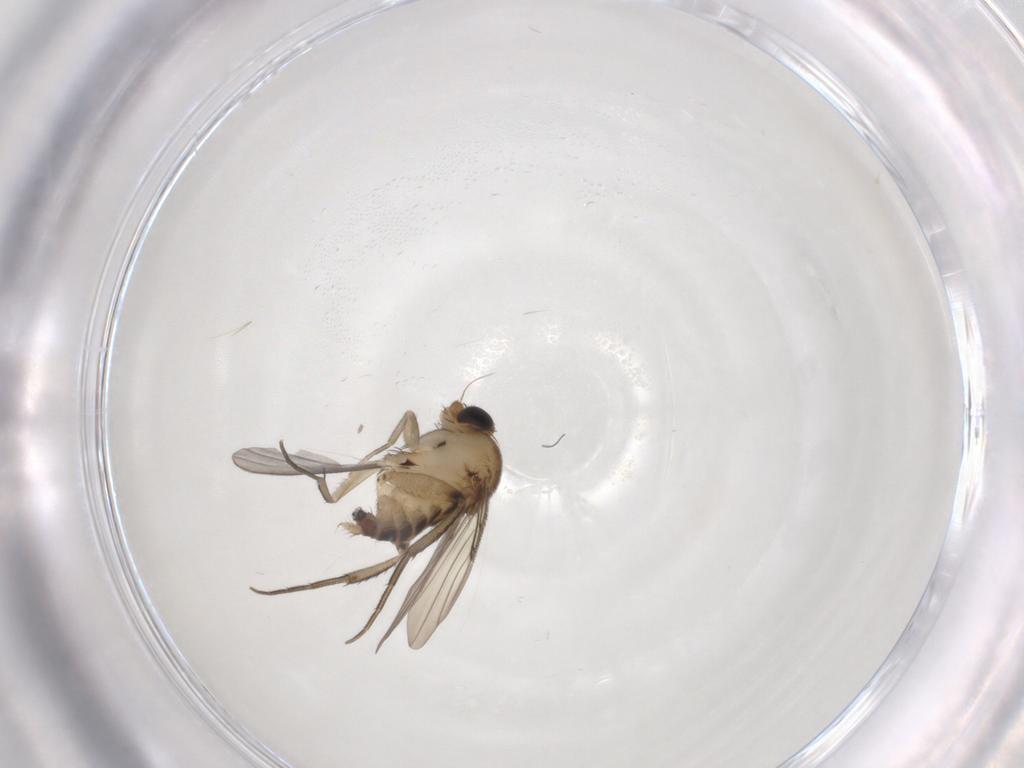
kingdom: Animalia
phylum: Arthropoda
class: Insecta
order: Diptera
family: Phoridae
